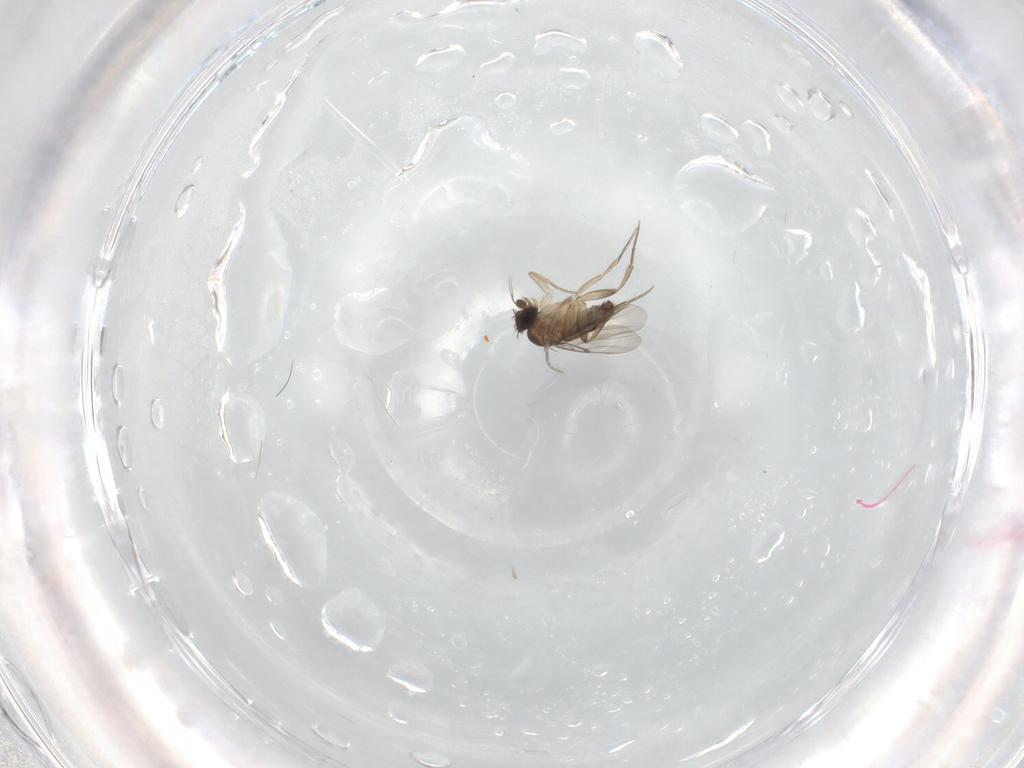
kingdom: Animalia
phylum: Arthropoda
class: Insecta
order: Diptera
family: Phoridae
